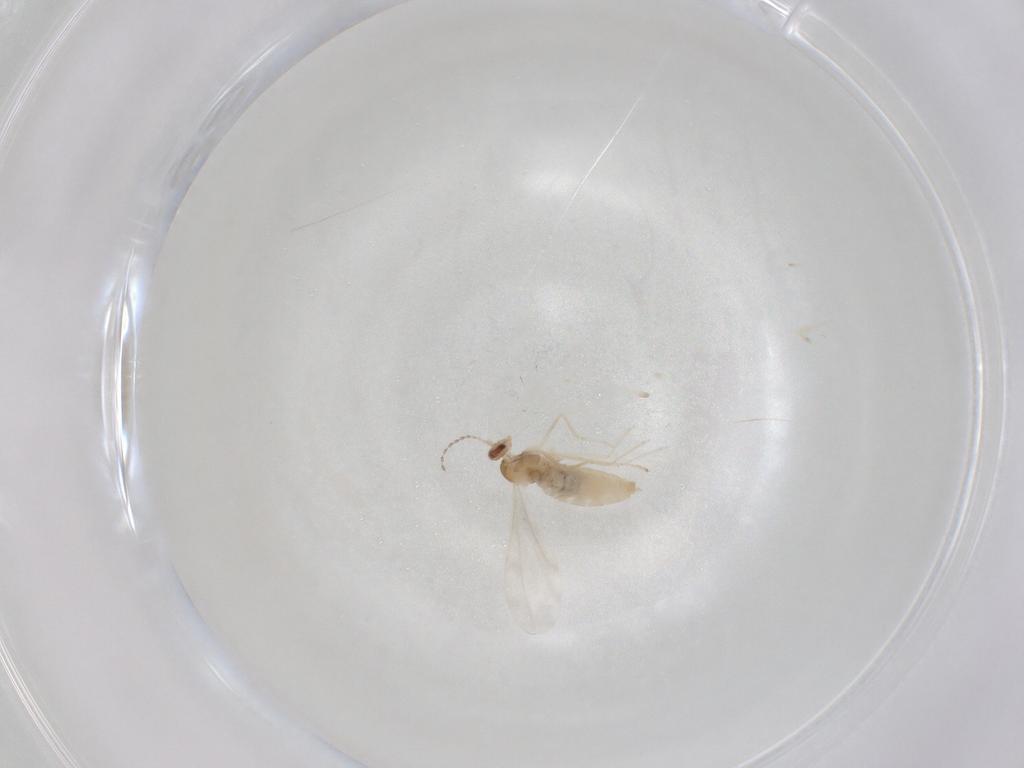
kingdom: Animalia
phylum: Arthropoda
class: Insecta
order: Diptera
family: Cecidomyiidae
